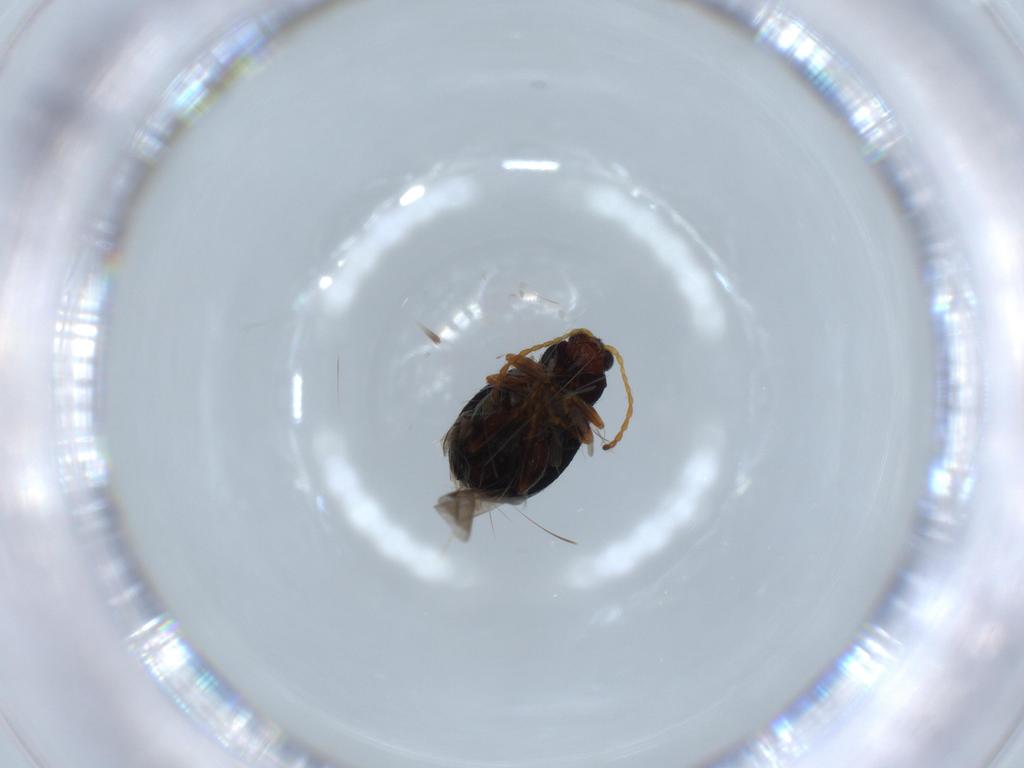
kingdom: Animalia
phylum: Arthropoda
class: Insecta
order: Coleoptera
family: Chrysomelidae
